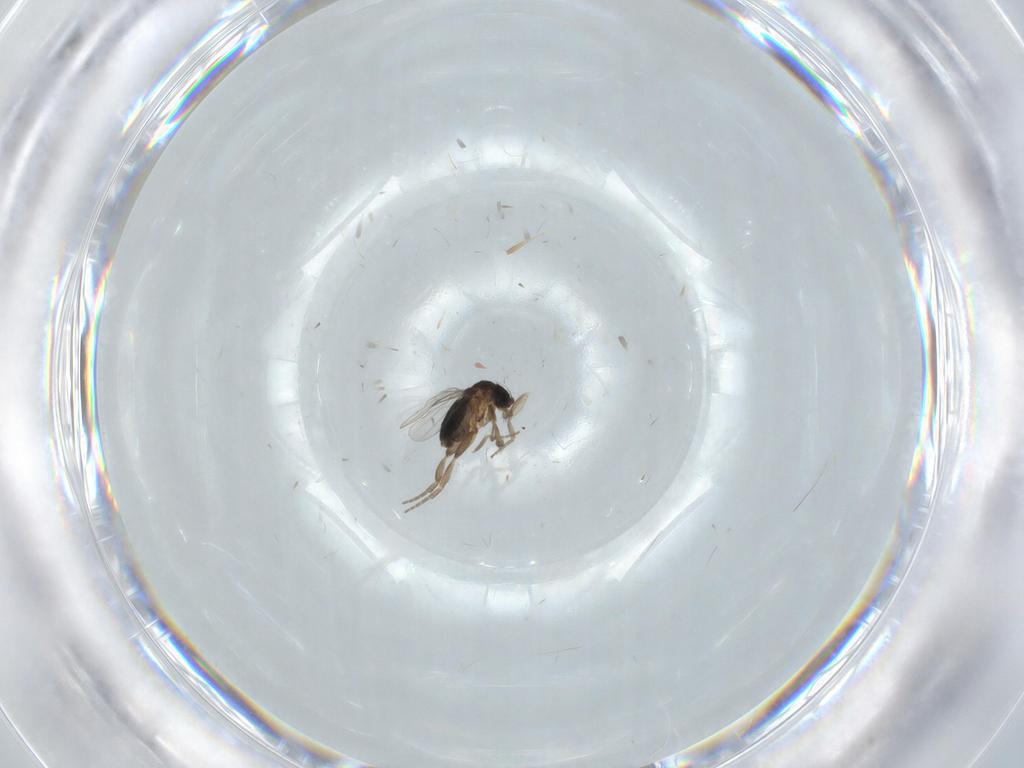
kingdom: Animalia
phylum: Arthropoda
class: Insecta
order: Diptera
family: Phoridae
